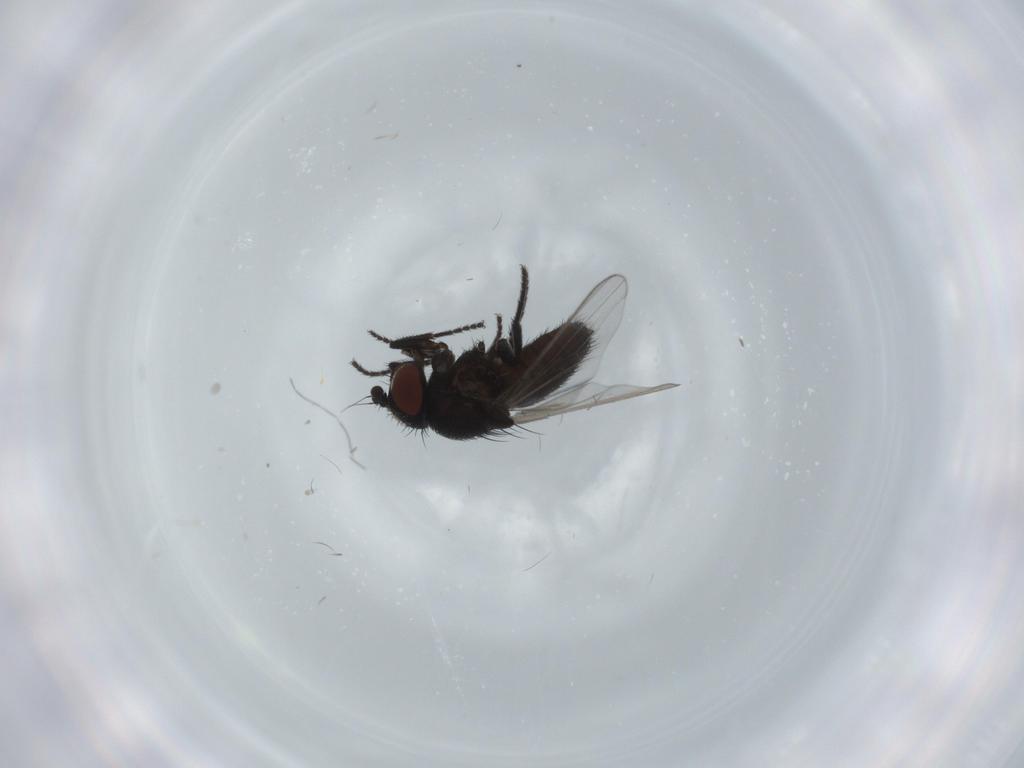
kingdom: Animalia
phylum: Arthropoda
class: Insecta
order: Diptera
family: Milichiidae
